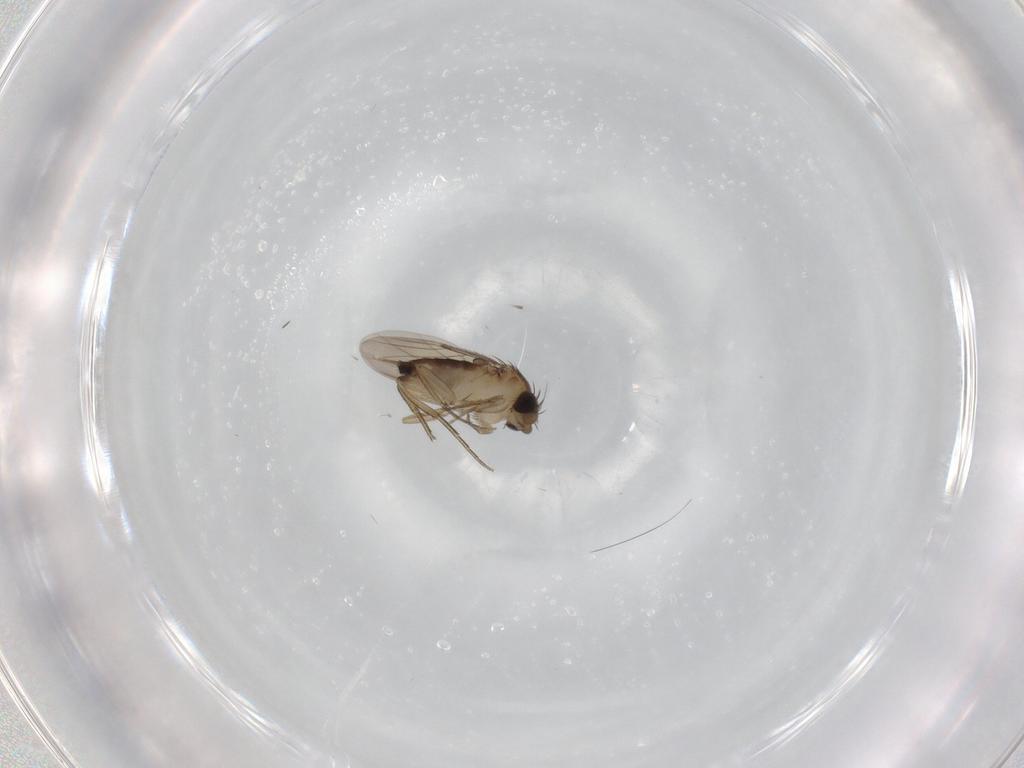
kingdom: Animalia
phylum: Arthropoda
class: Insecta
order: Diptera
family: Phoridae
